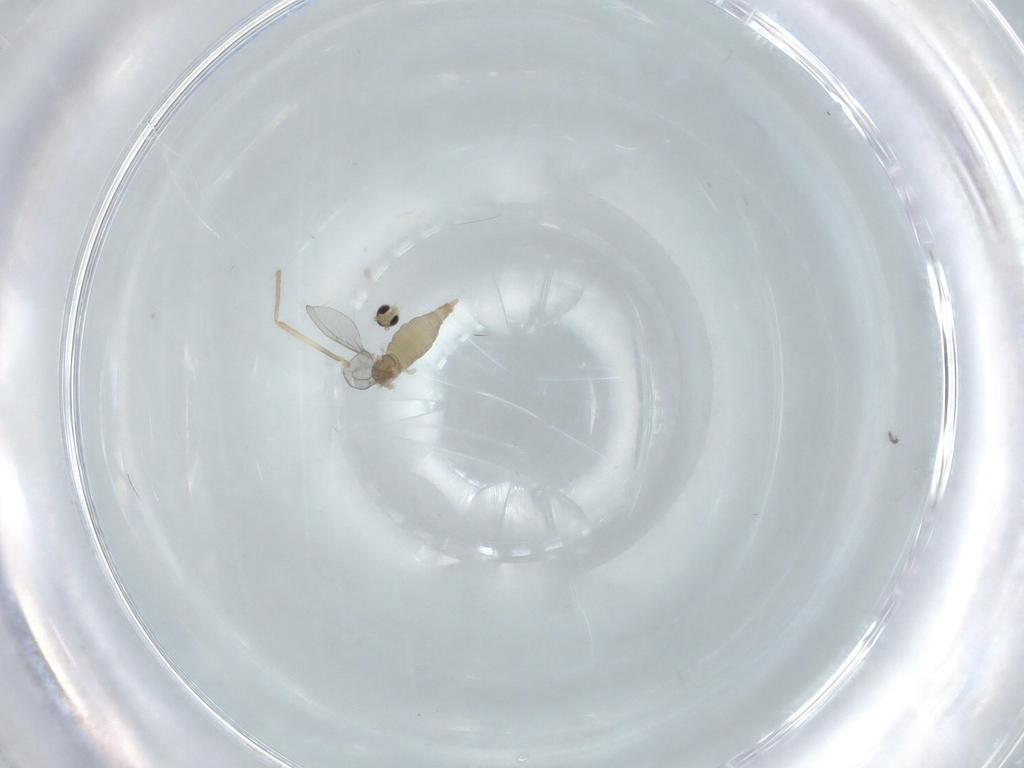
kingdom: Animalia
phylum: Arthropoda
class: Insecta
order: Diptera
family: Cecidomyiidae
